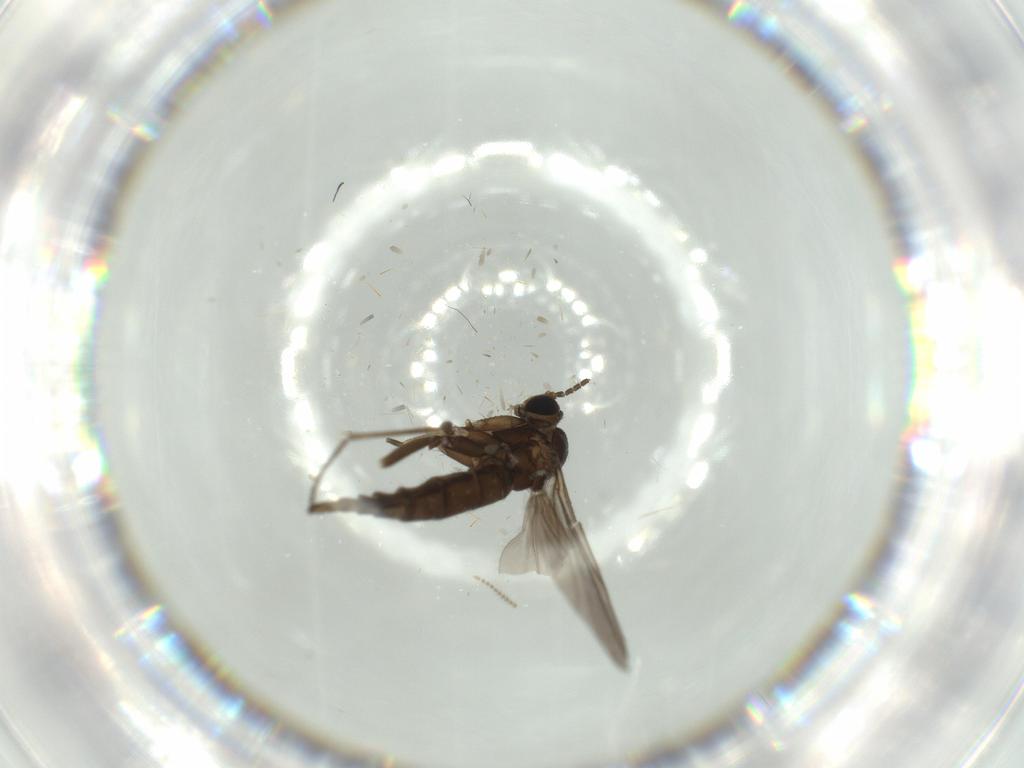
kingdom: Animalia
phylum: Arthropoda
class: Insecta
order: Diptera
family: Sciaridae
